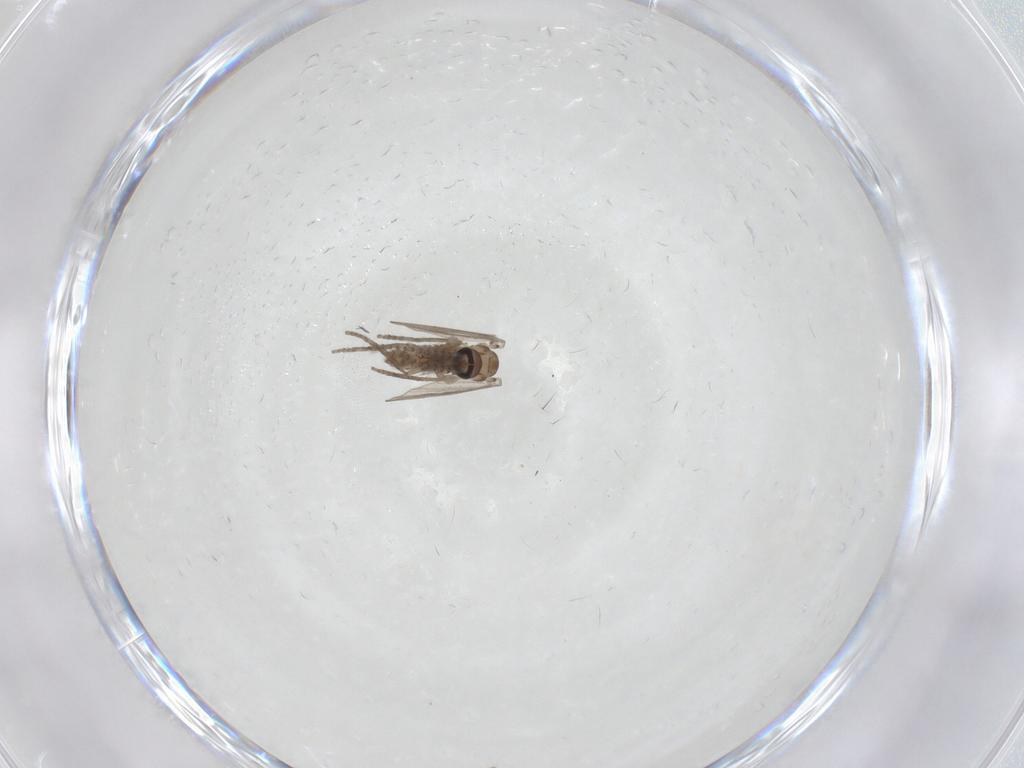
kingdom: Animalia
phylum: Arthropoda
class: Insecta
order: Diptera
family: Psychodidae
